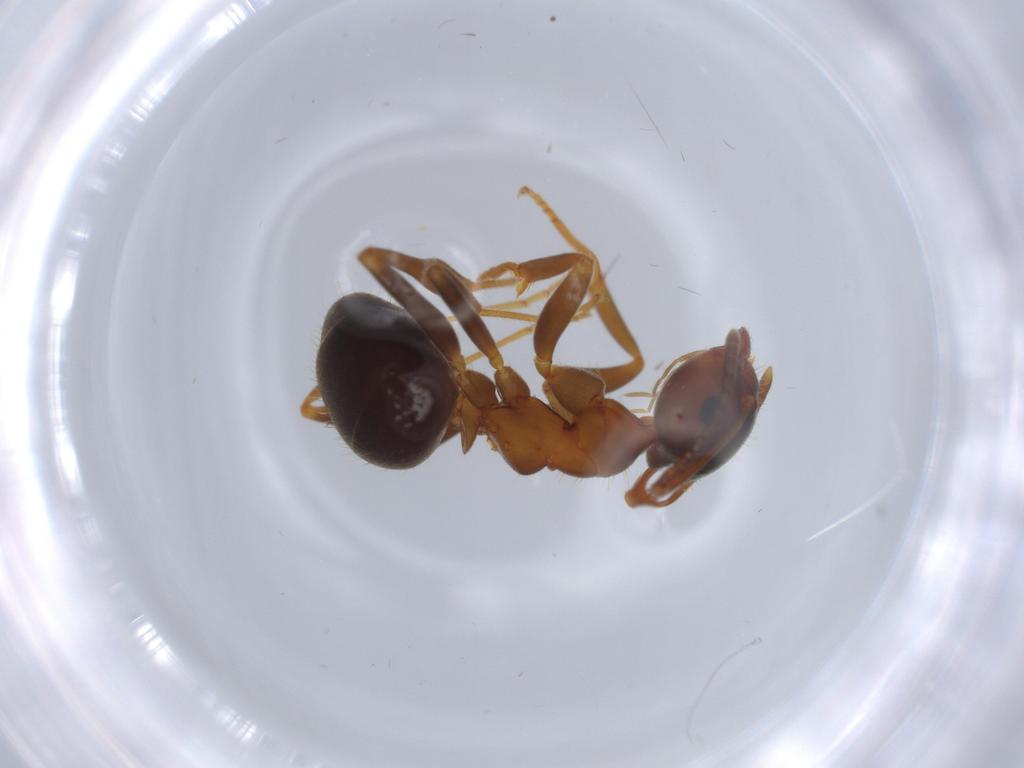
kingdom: Animalia
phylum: Arthropoda
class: Insecta
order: Hymenoptera
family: Formicidae
